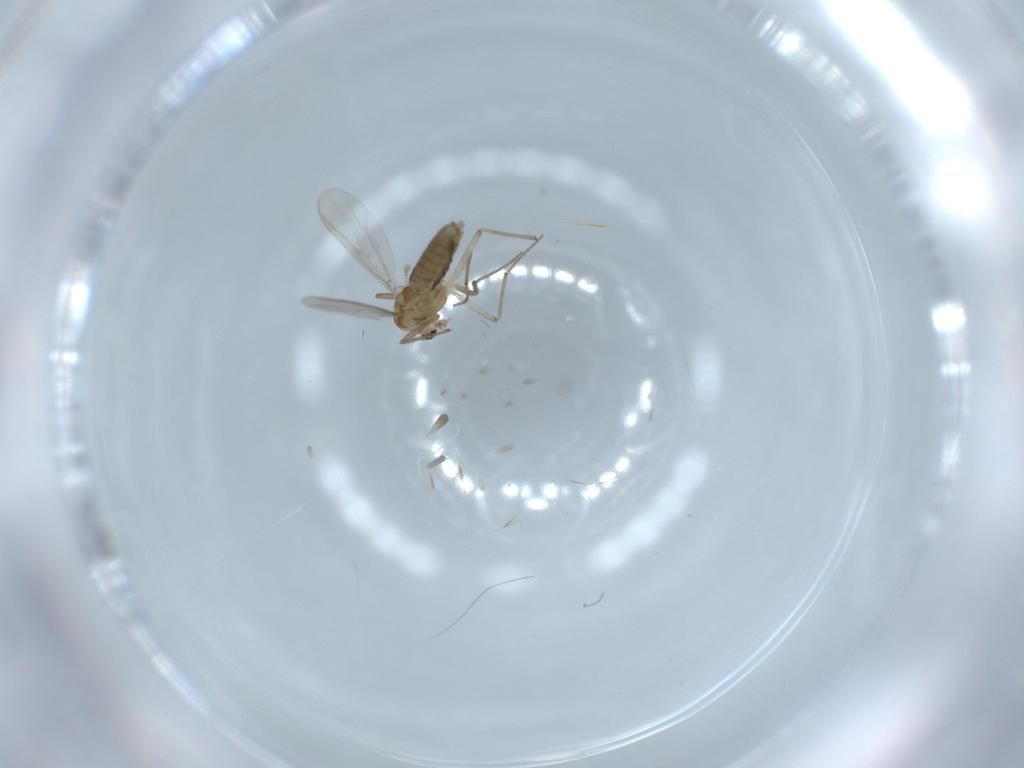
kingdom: Animalia
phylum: Arthropoda
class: Insecta
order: Diptera
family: Chironomidae
